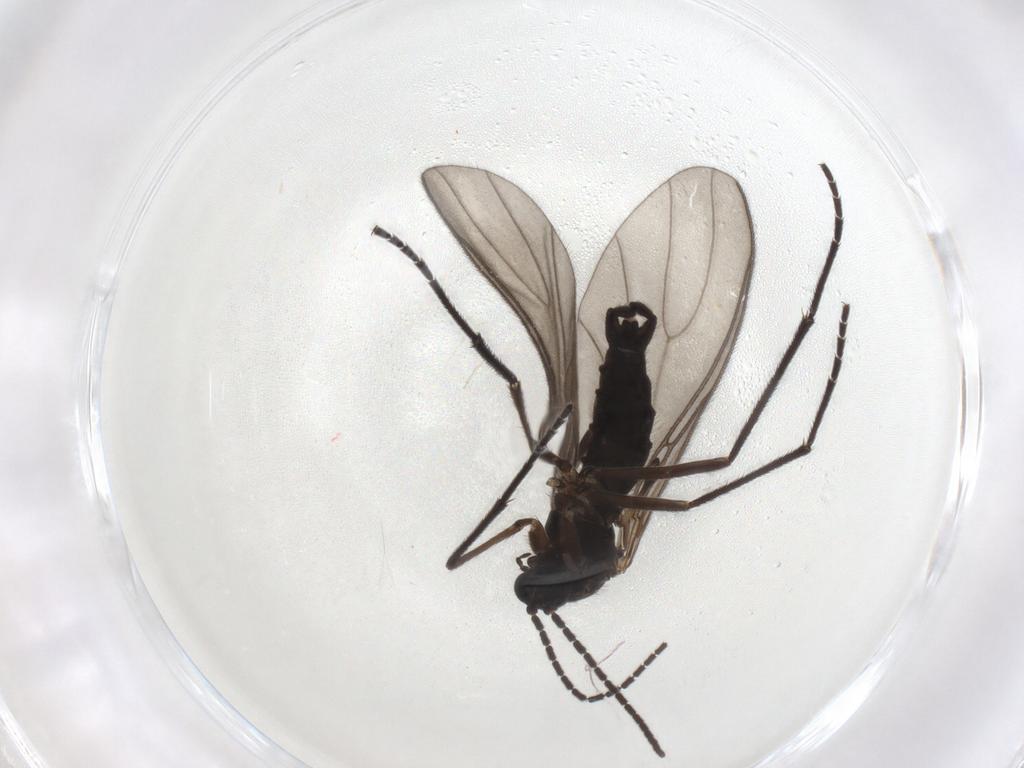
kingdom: Animalia
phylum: Arthropoda
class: Insecta
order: Diptera
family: Sciaridae
